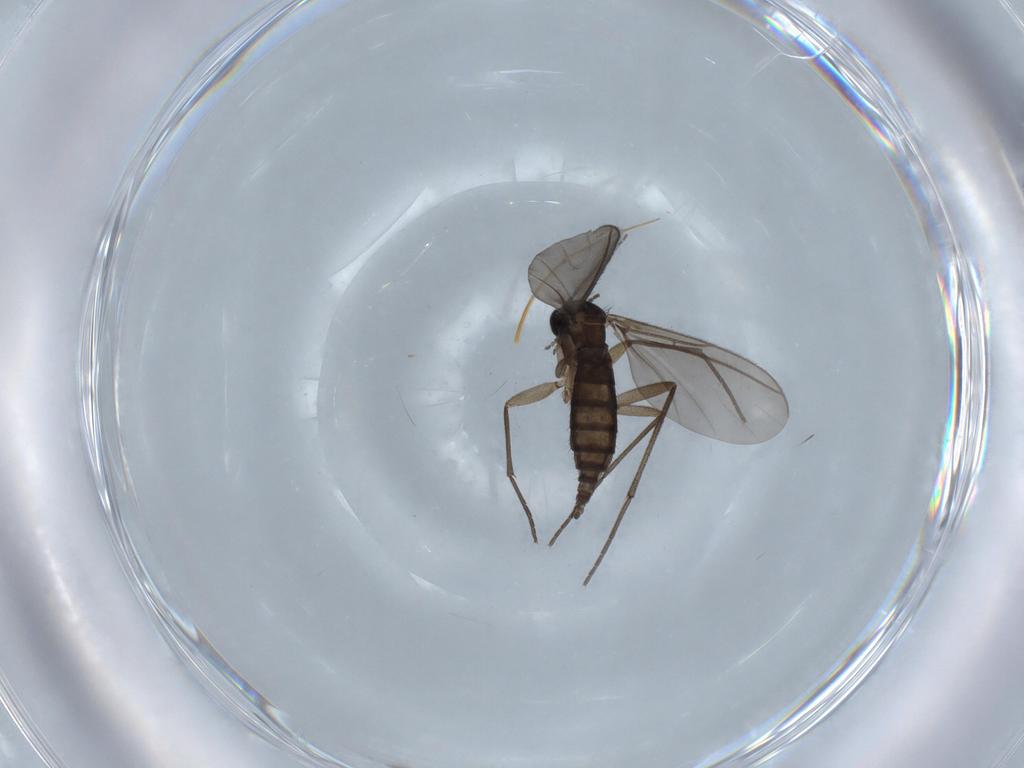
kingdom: Animalia
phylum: Arthropoda
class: Insecta
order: Diptera
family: Sciaridae
